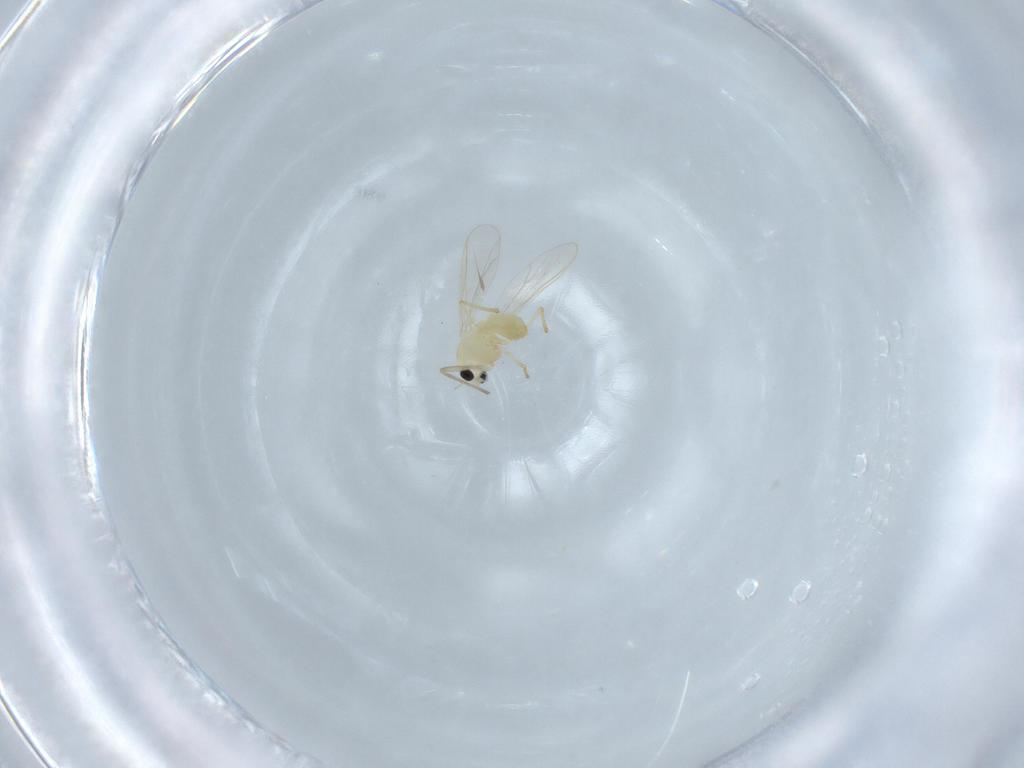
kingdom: Animalia
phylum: Arthropoda
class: Insecta
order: Diptera
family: Chironomidae
